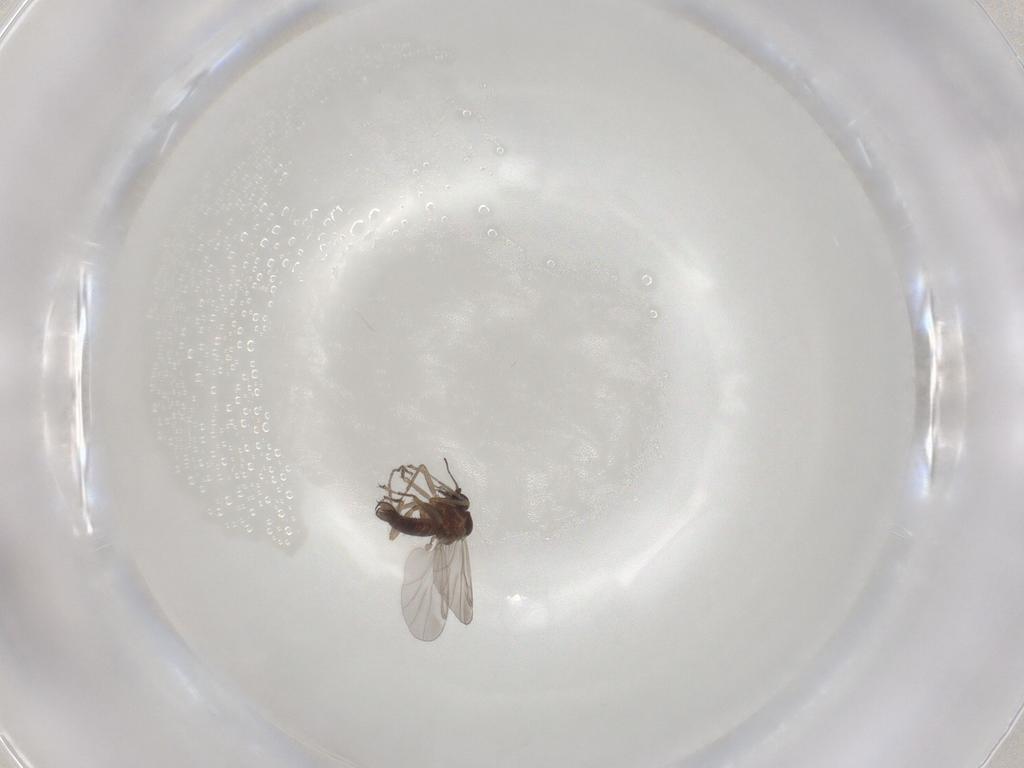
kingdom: Animalia
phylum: Arthropoda
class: Insecta
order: Diptera
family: Ceratopogonidae
